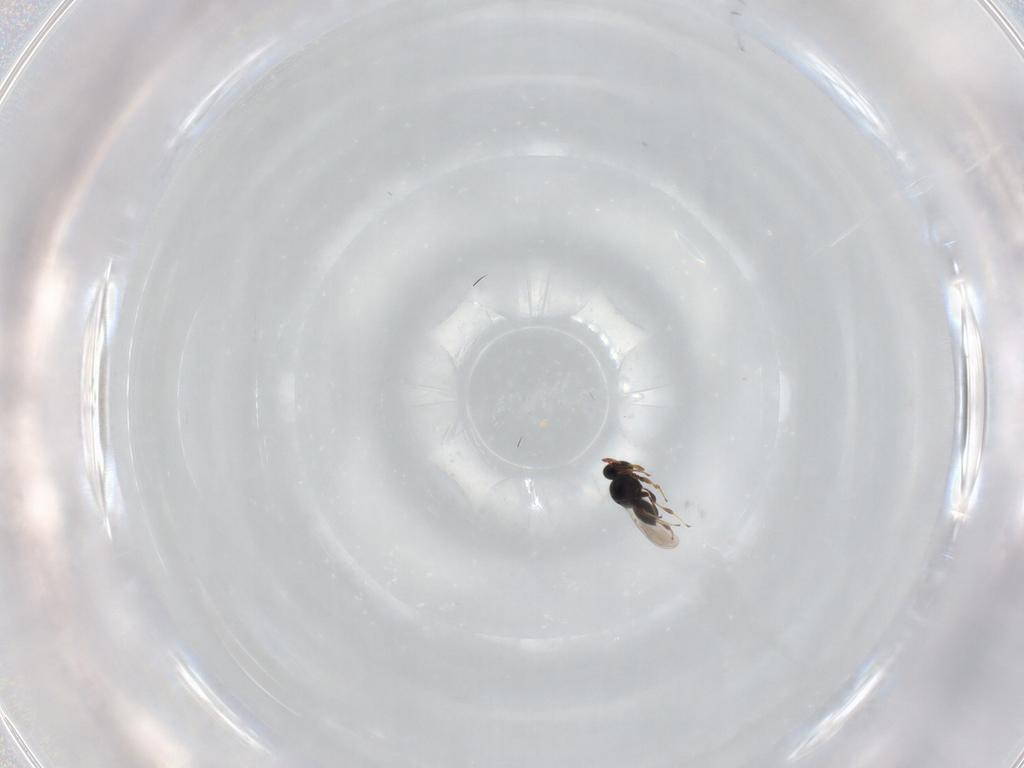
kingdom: Animalia
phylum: Arthropoda
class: Insecta
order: Hymenoptera
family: Platygastridae
